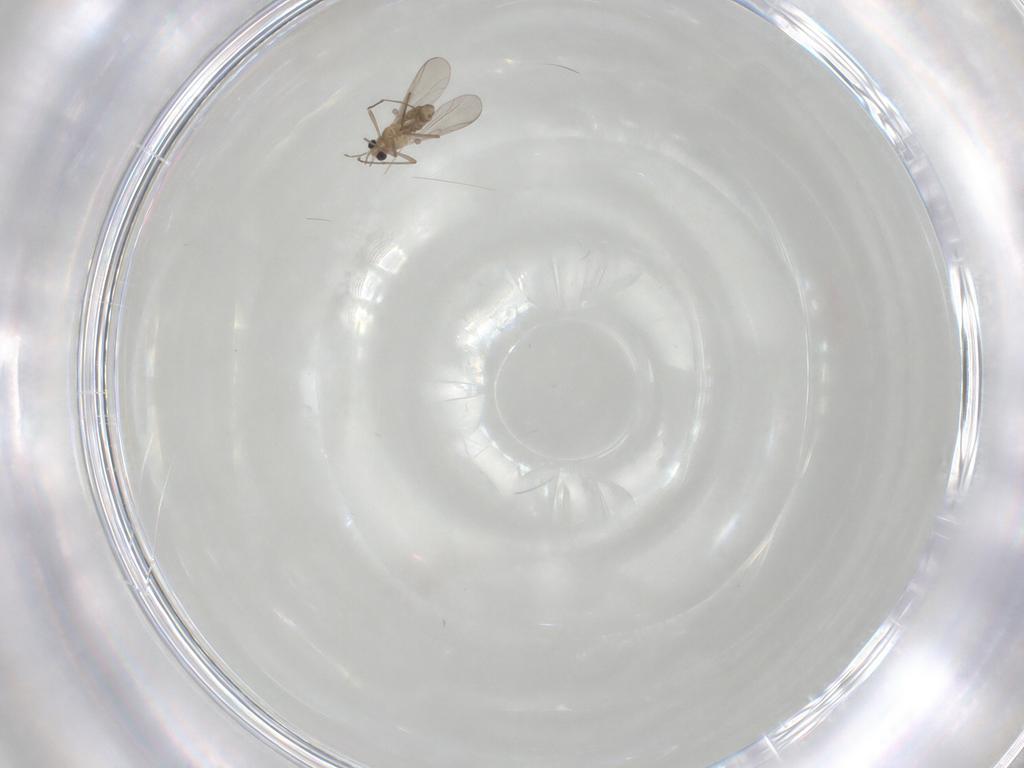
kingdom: Animalia
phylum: Arthropoda
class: Insecta
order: Diptera
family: Chironomidae
